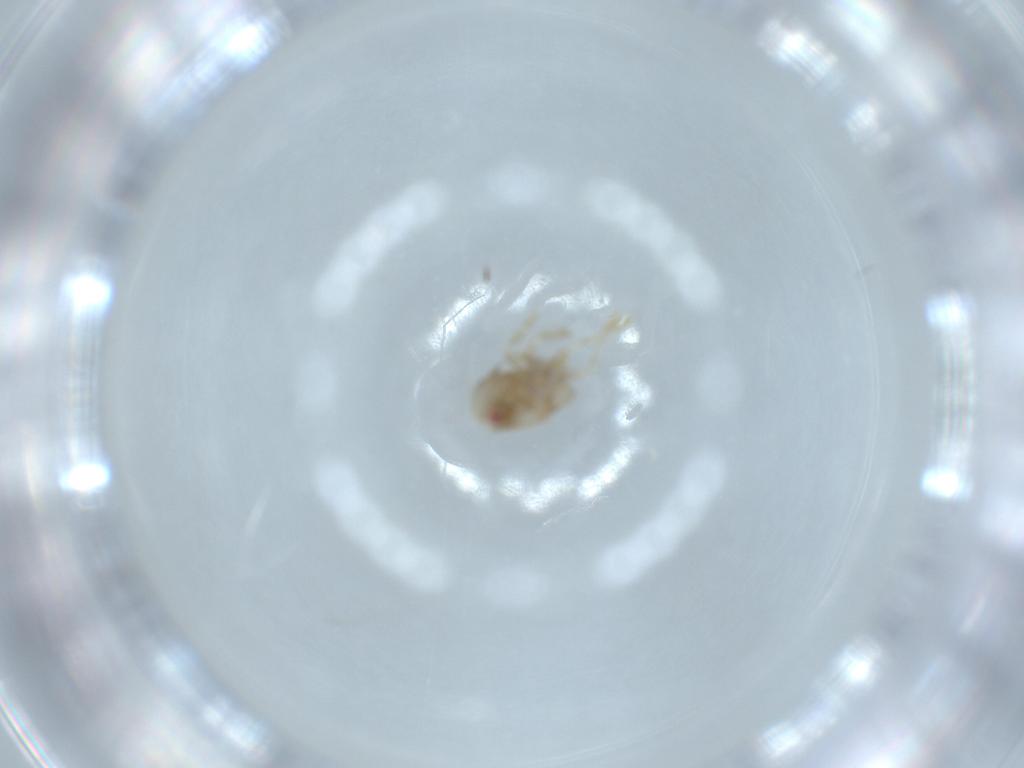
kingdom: Animalia
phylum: Arthropoda
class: Insecta
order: Hemiptera
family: Acanaloniidae
